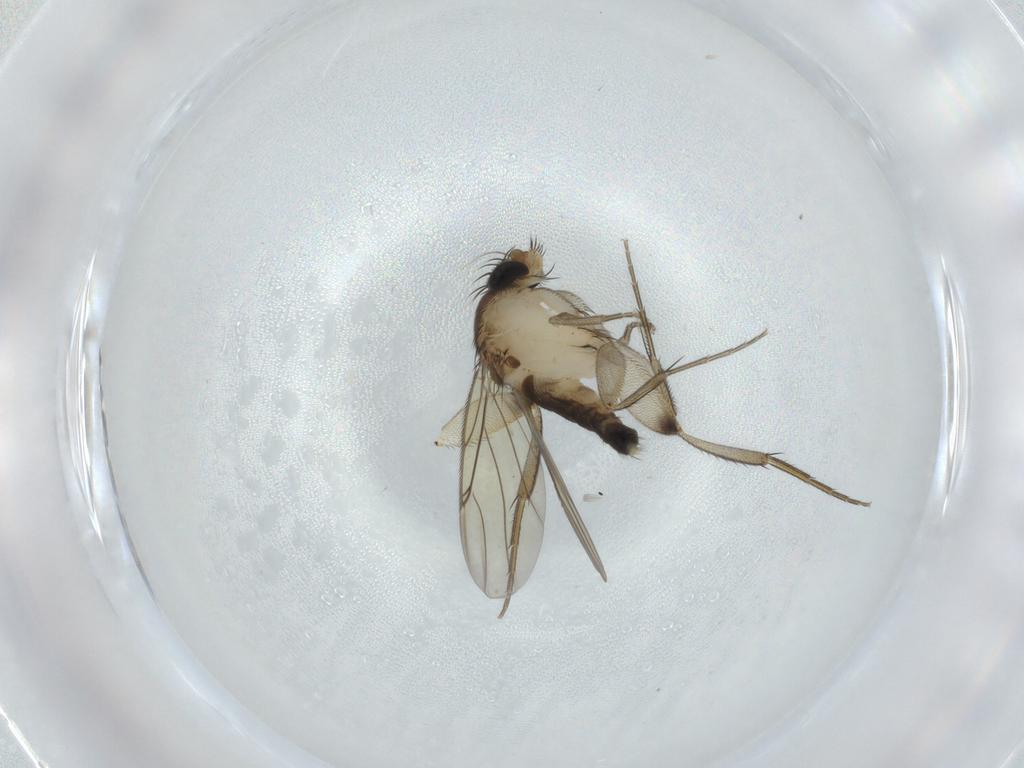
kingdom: Animalia
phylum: Arthropoda
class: Insecta
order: Diptera
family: Phoridae
